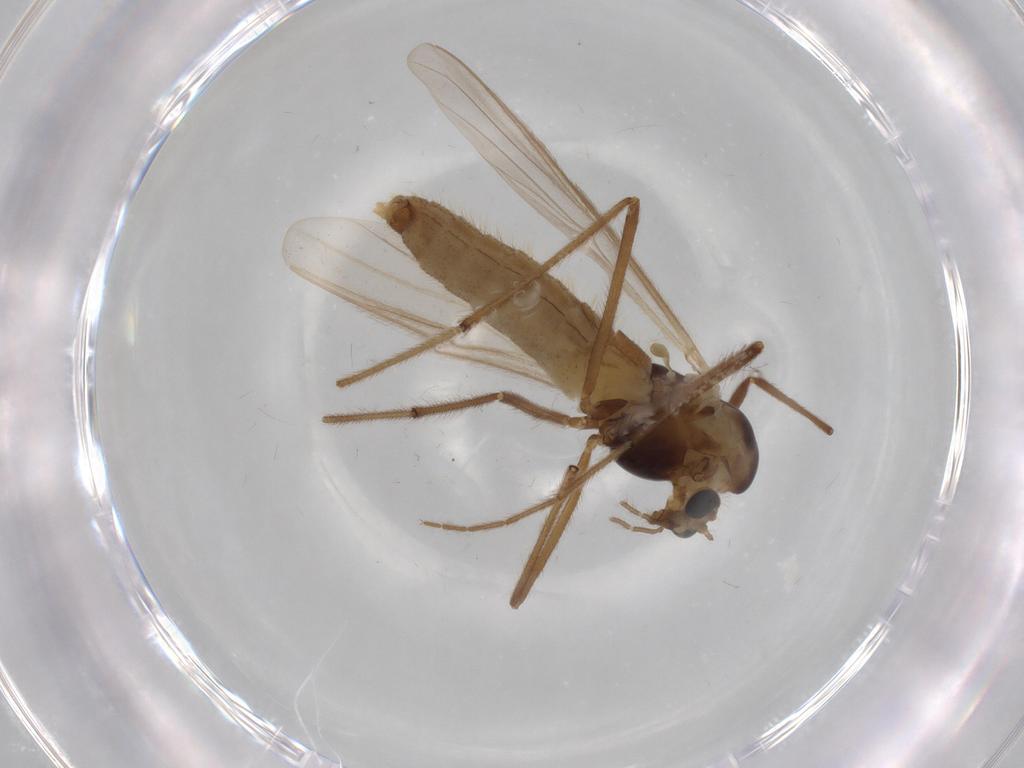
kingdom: Animalia
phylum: Arthropoda
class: Insecta
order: Diptera
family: Chironomidae
